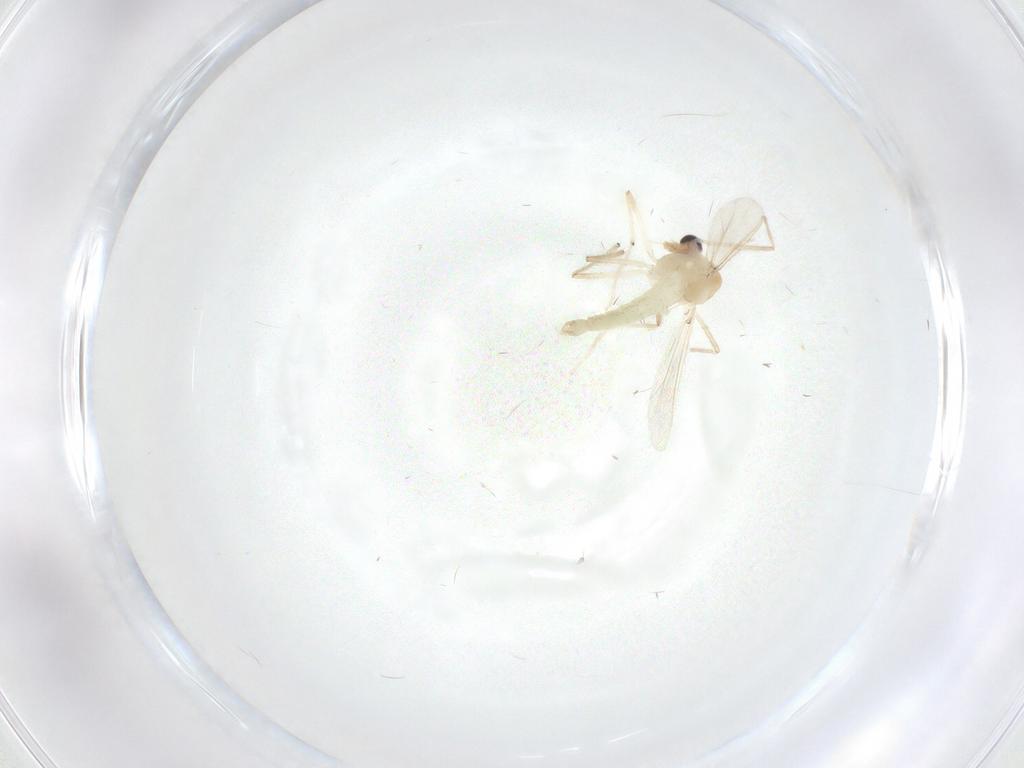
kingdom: Animalia
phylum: Arthropoda
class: Insecta
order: Diptera
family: Chironomidae
